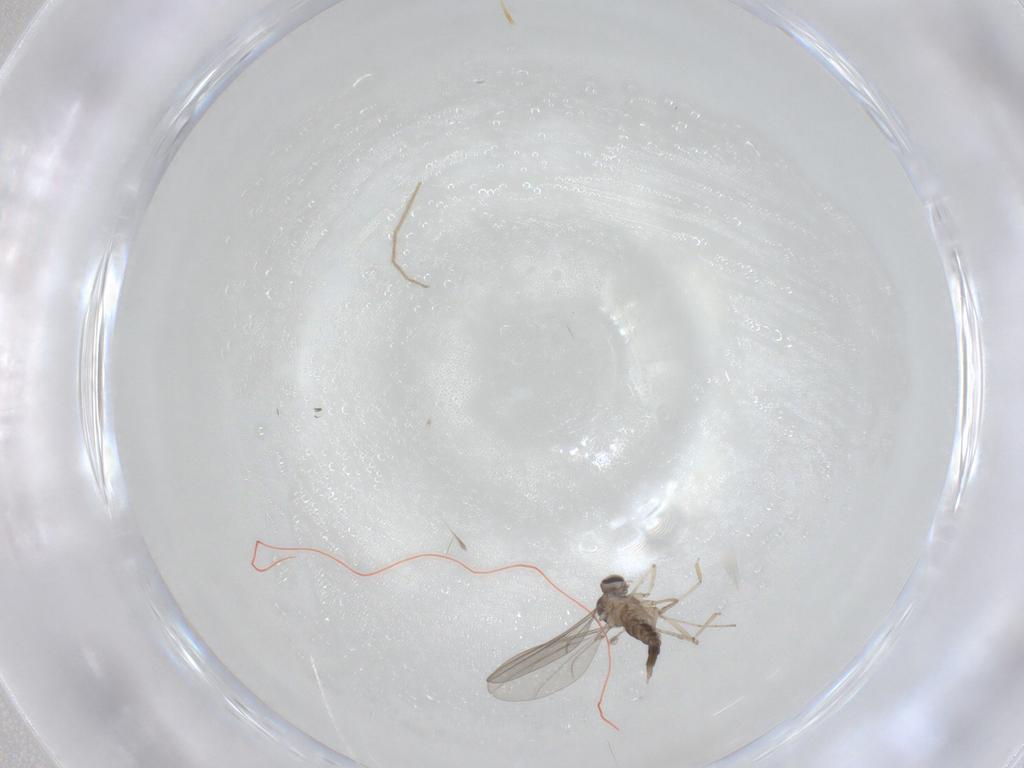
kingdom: Animalia
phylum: Arthropoda
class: Insecta
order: Diptera
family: Cecidomyiidae
